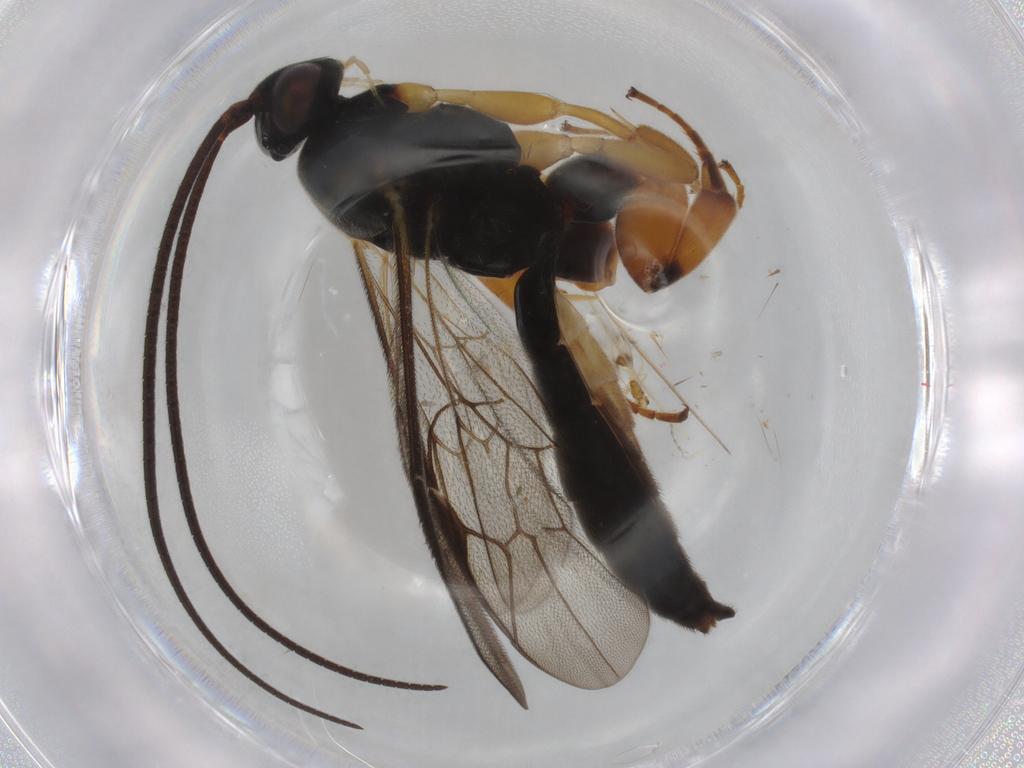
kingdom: Animalia
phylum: Arthropoda
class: Insecta
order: Hymenoptera
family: Ichneumonidae
